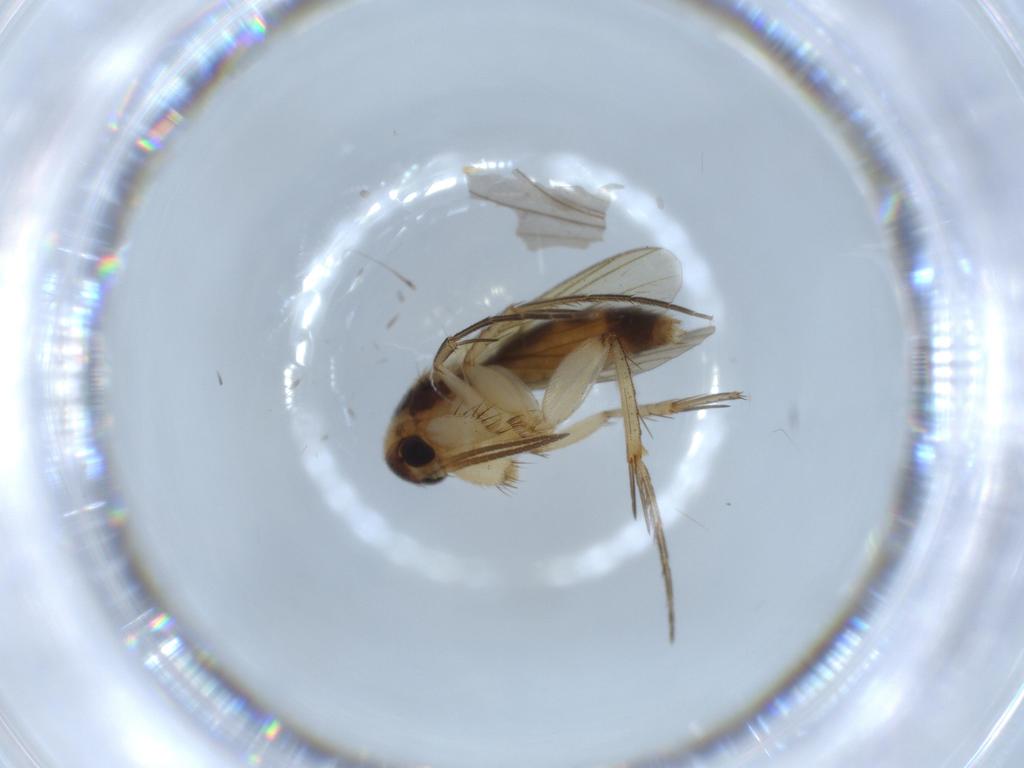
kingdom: Animalia
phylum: Arthropoda
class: Insecta
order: Diptera
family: Mycetophilidae
